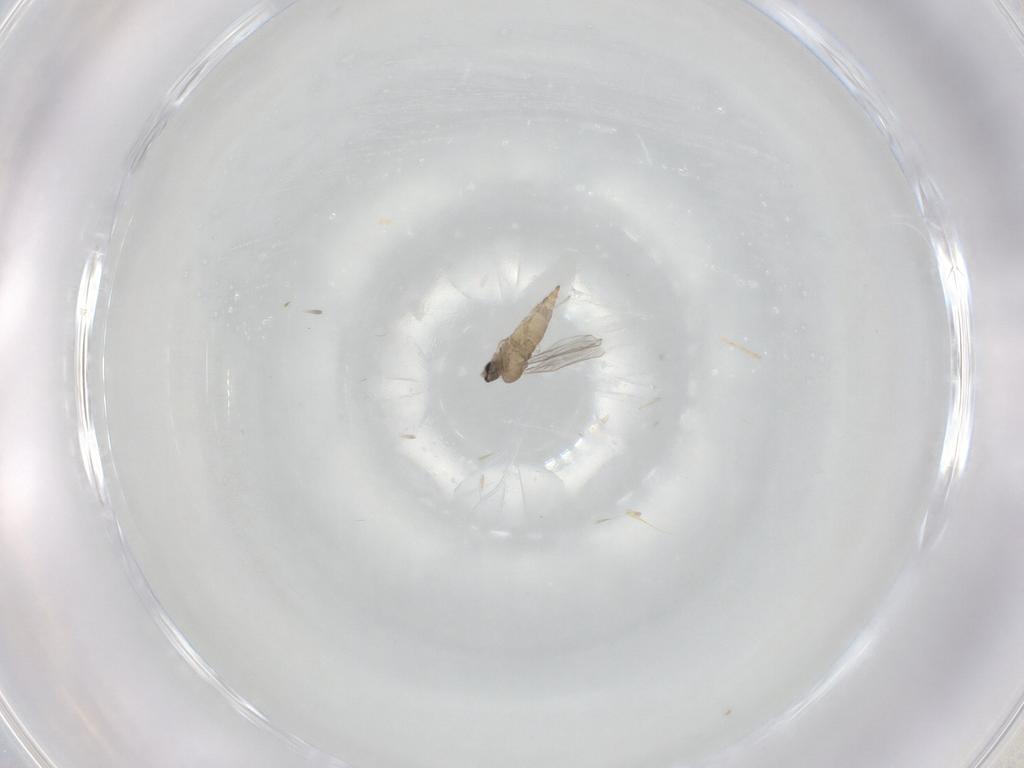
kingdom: Animalia
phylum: Arthropoda
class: Insecta
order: Diptera
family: Cecidomyiidae
